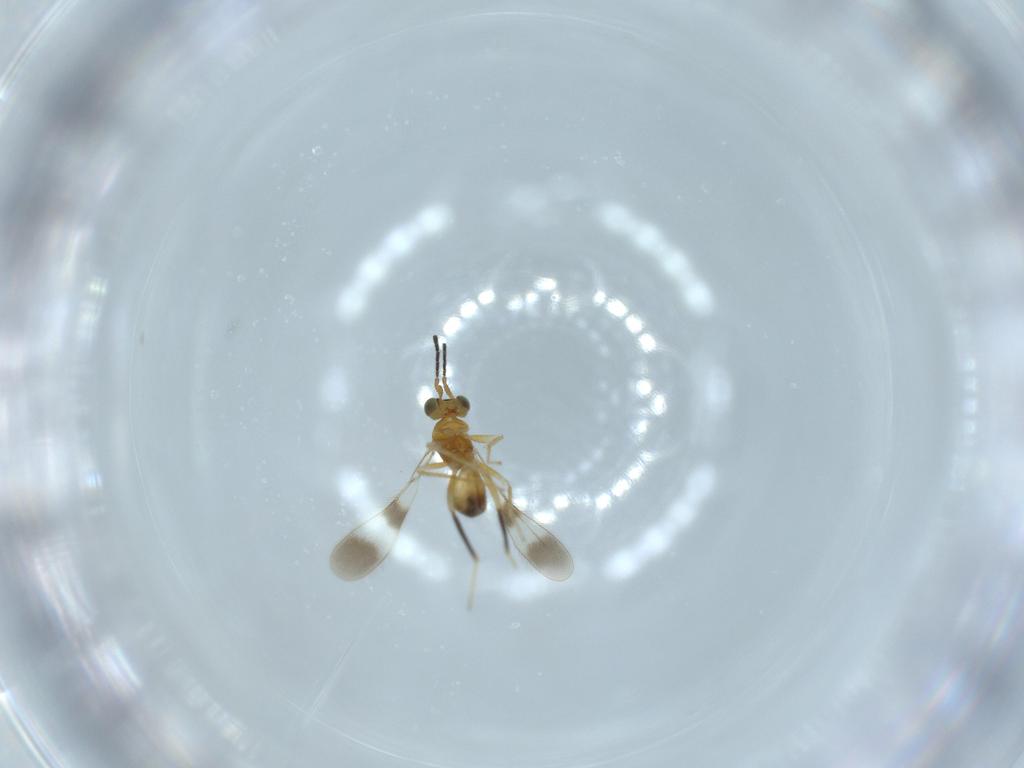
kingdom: Animalia
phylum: Arthropoda
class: Insecta
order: Hymenoptera
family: Mymaridae
